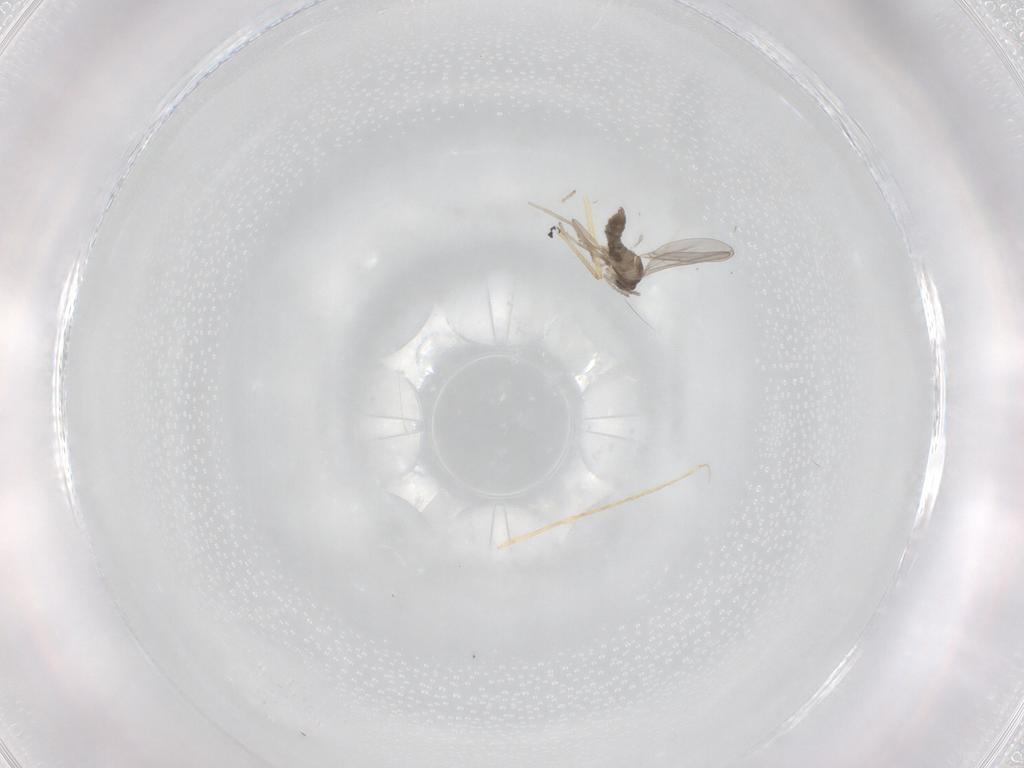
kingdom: Animalia
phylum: Arthropoda
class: Insecta
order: Diptera
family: Chironomidae
